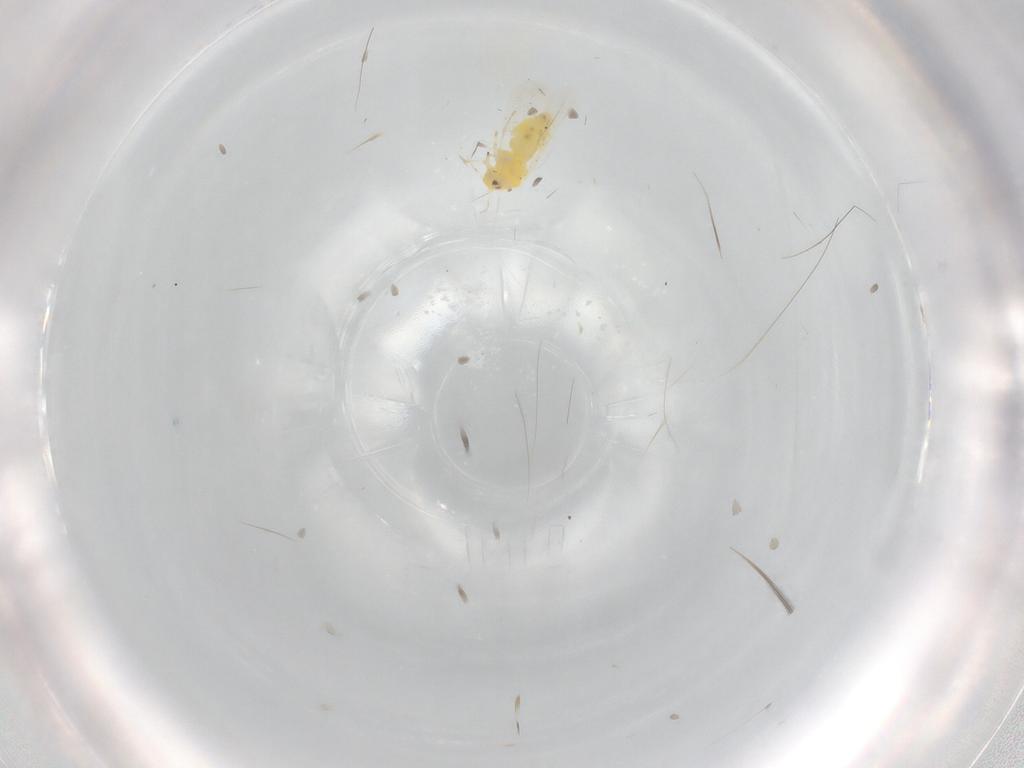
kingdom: Animalia
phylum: Arthropoda
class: Insecta
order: Hemiptera
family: Aleyrodidae
